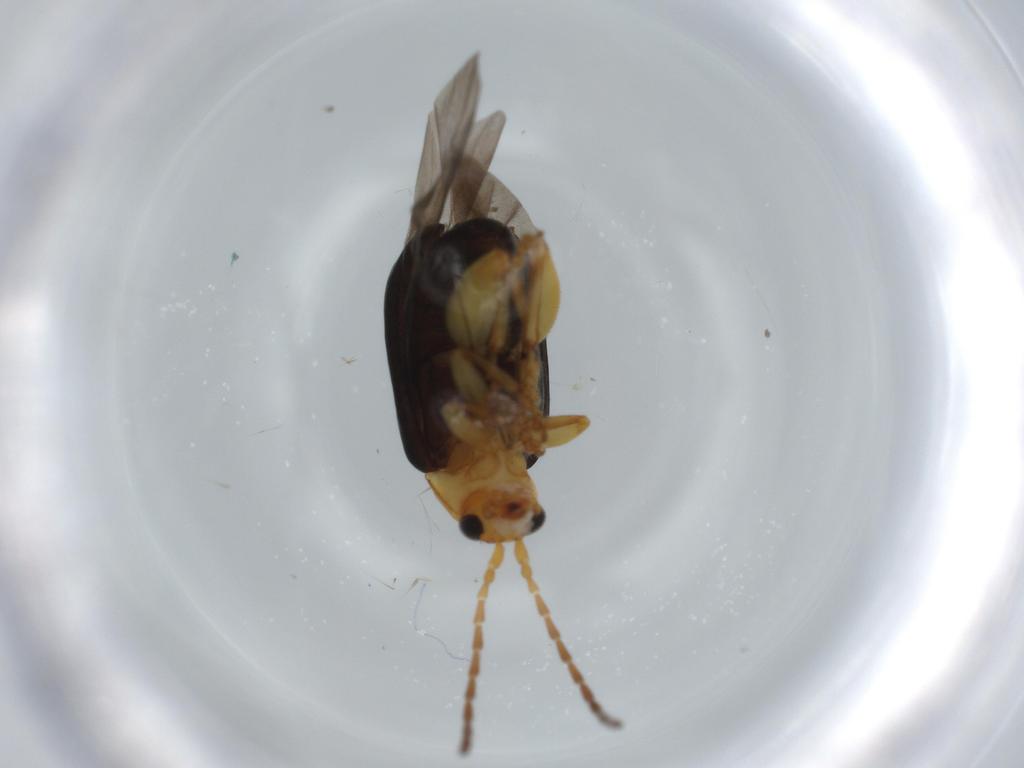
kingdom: Animalia
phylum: Arthropoda
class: Insecta
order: Coleoptera
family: Chrysomelidae
